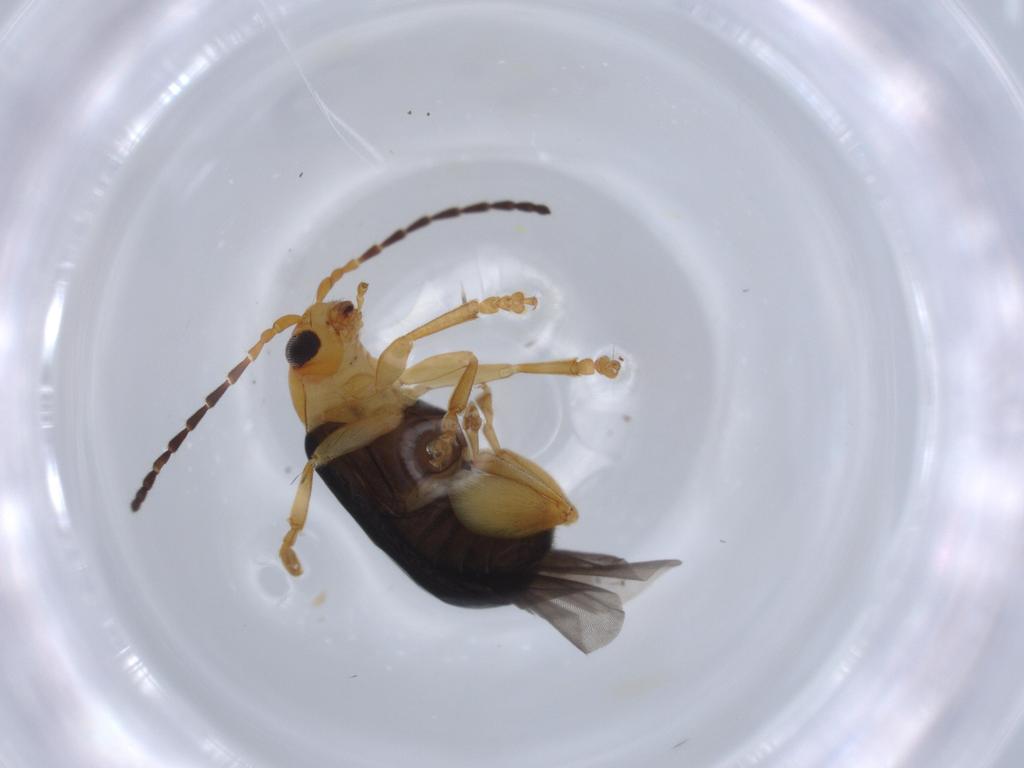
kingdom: Animalia
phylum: Arthropoda
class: Insecta
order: Coleoptera
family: Chrysomelidae
